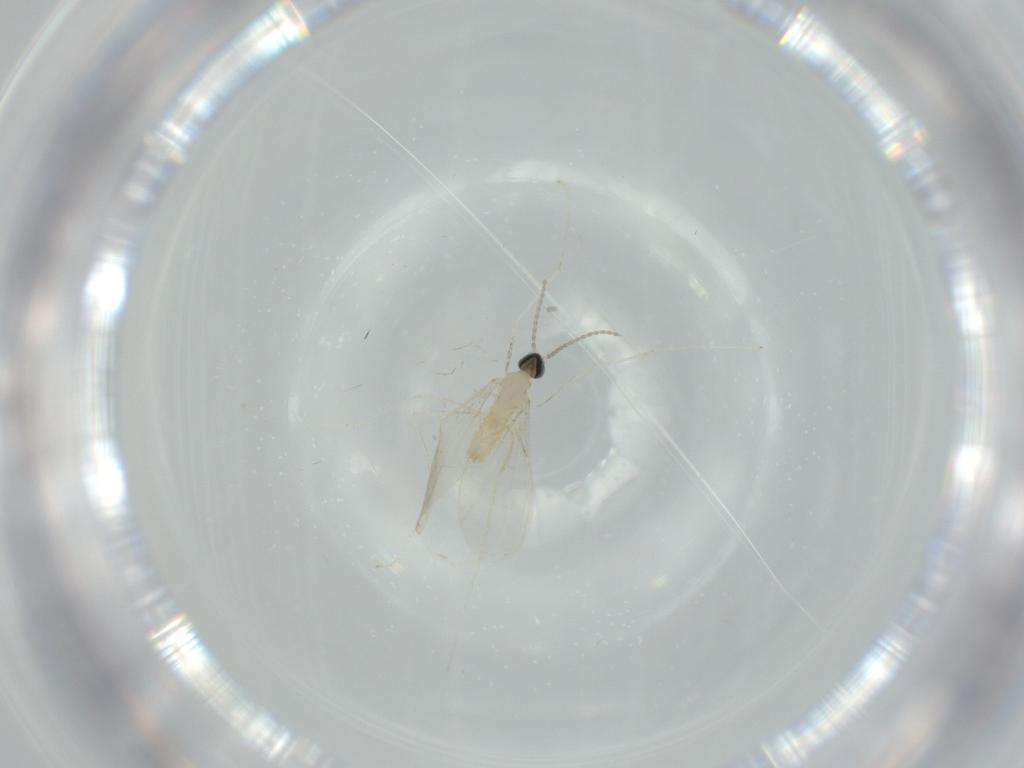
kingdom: Animalia
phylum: Arthropoda
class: Insecta
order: Diptera
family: Cecidomyiidae
